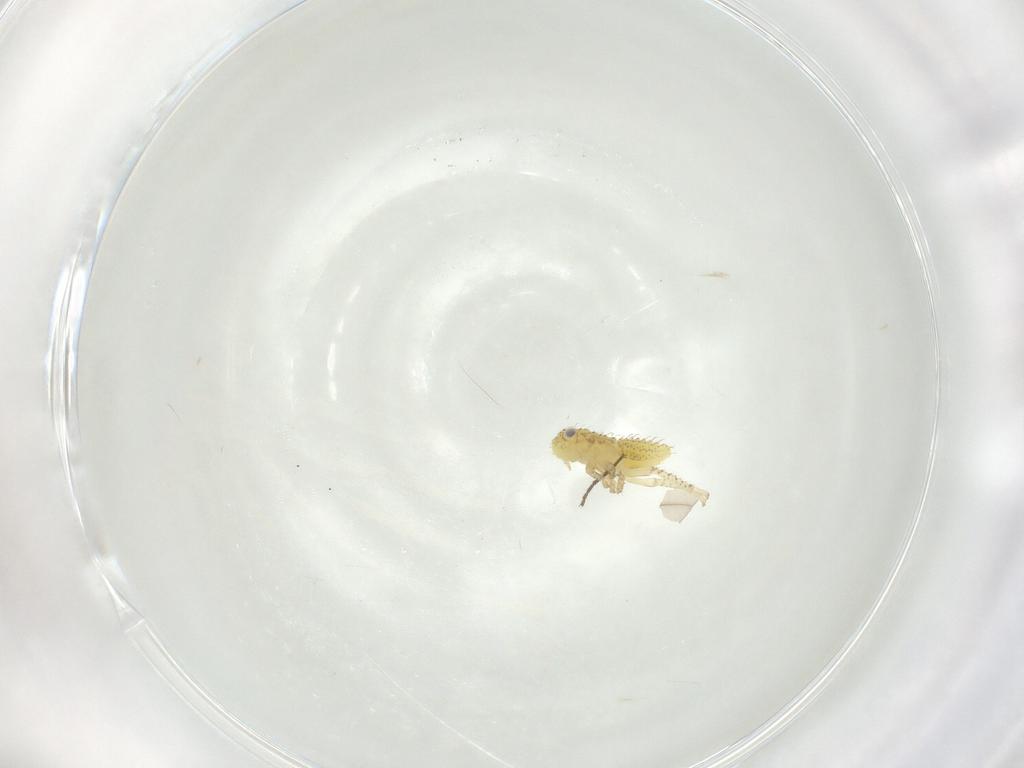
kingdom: Animalia
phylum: Arthropoda
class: Insecta
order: Hemiptera
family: Cicadellidae
